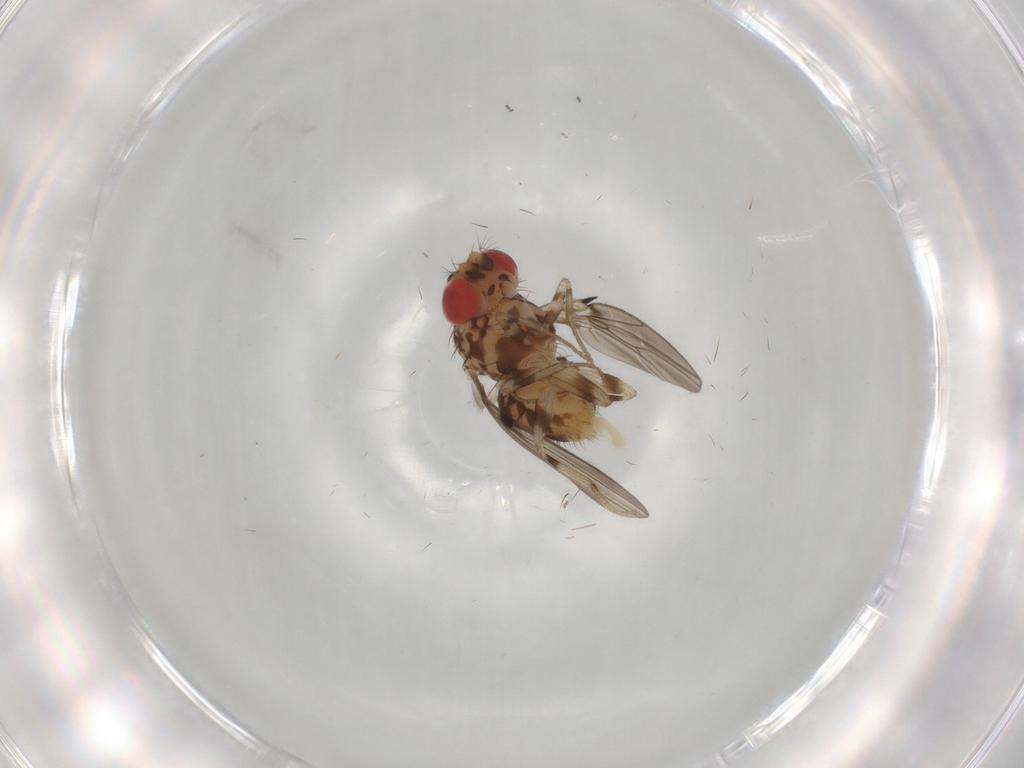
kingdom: Animalia
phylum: Arthropoda
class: Insecta
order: Diptera
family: Drosophilidae
